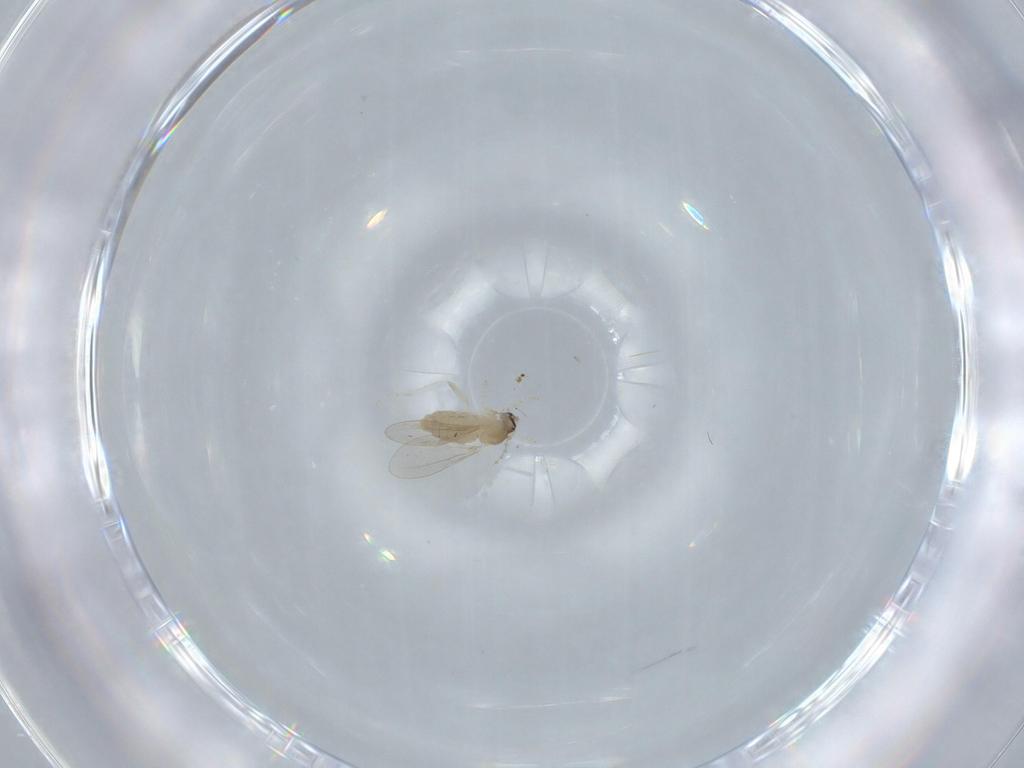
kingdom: Animalia
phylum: Arthropoda
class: Insecta
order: Diptera
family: Cecidomyiidae
